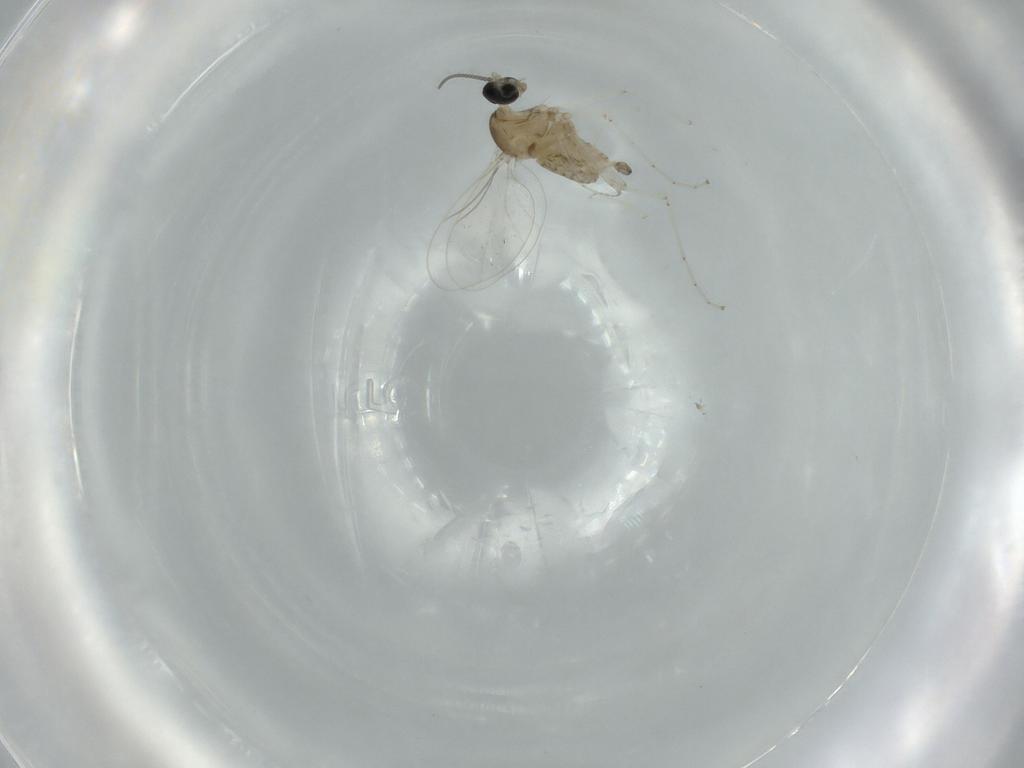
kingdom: Animalia
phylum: Arthropoda
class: Insecta
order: Diptera
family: Cecidomyiidae
